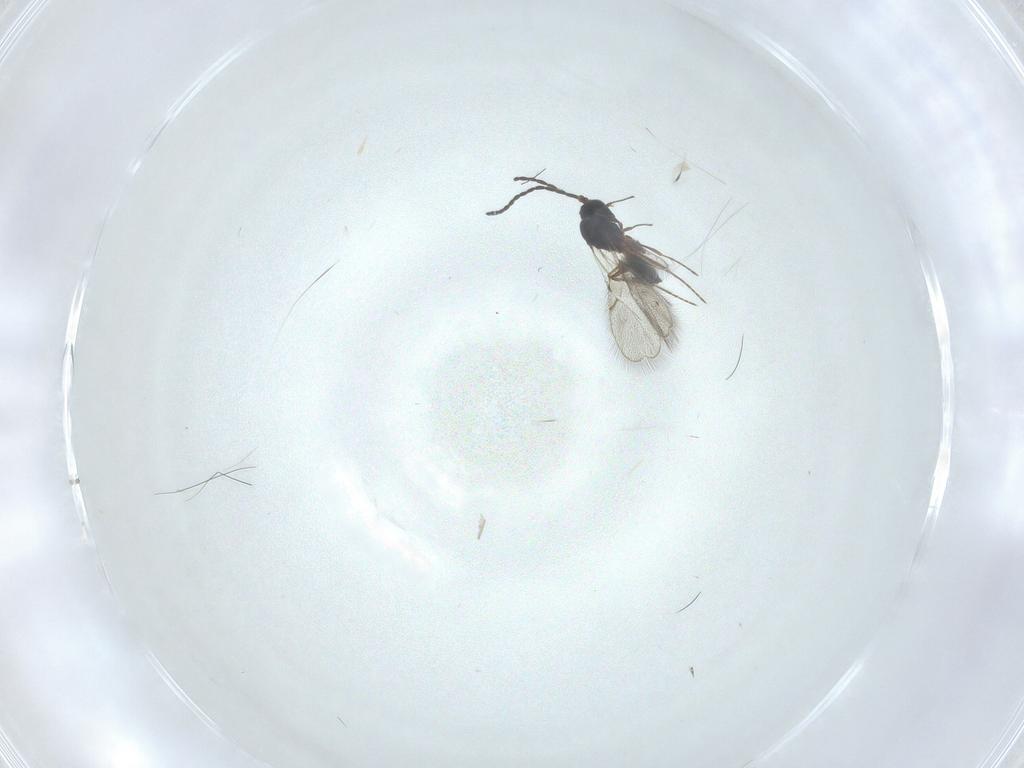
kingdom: Animalia
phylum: Arthropoda
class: Insecta
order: Hymenoptera
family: Figitidae
